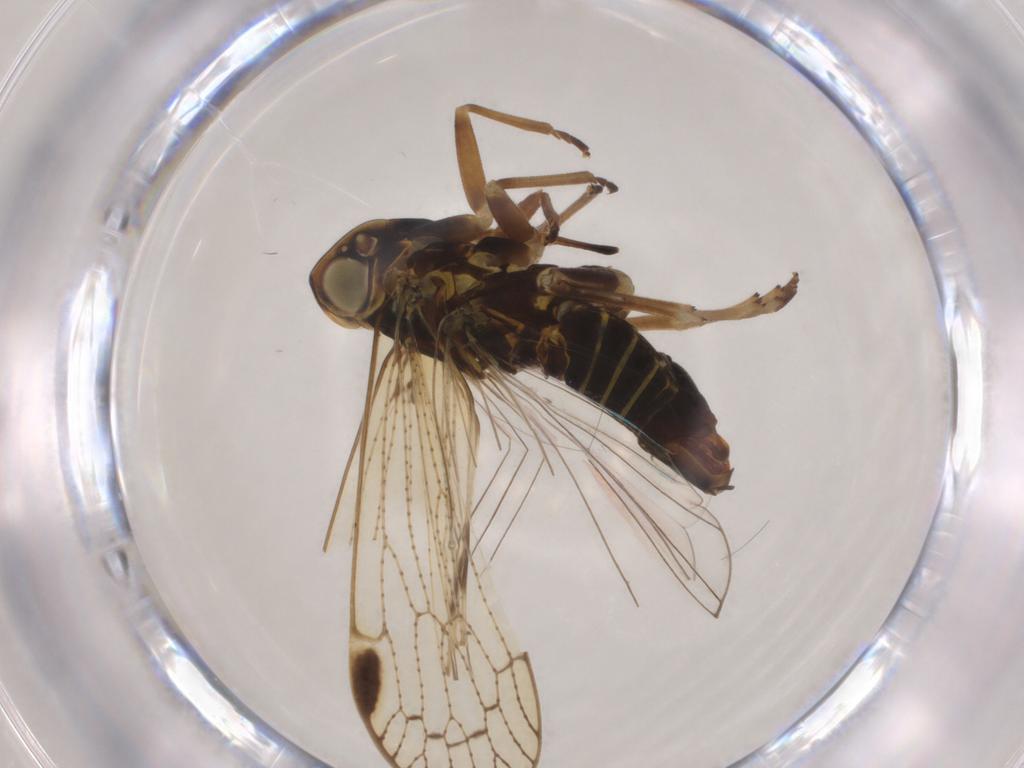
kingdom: Animalia
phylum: Arthropoda
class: Insecta
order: Hemiptera
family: Cixiidae
